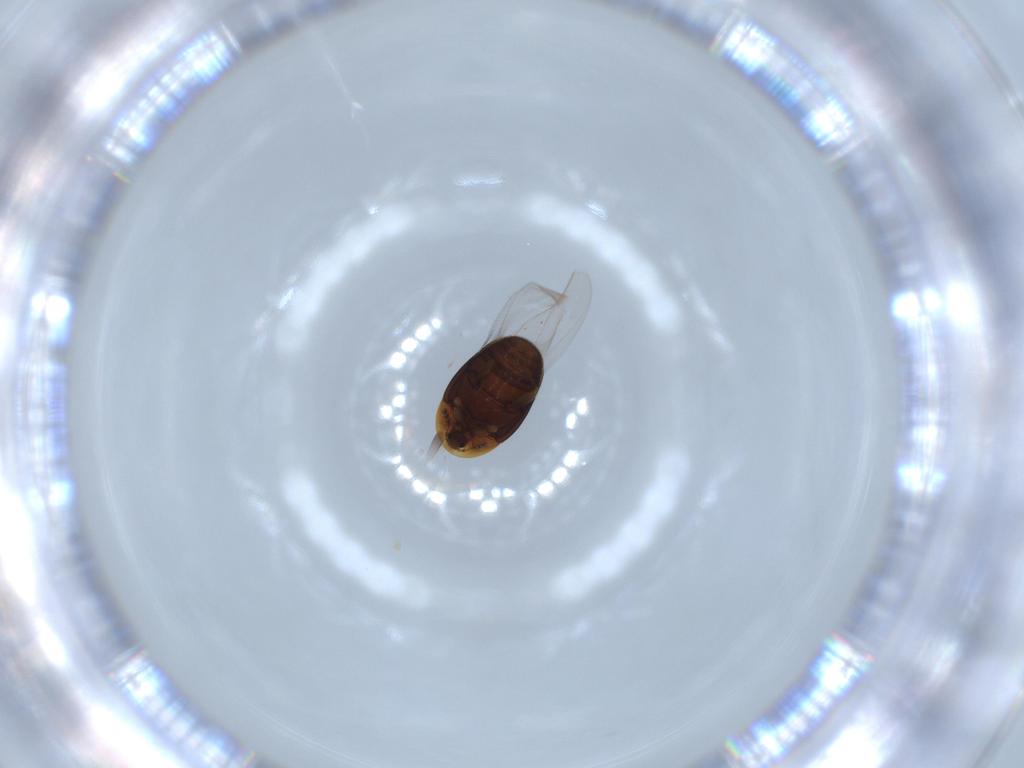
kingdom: Animalia
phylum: Arthropoda
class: Insecta
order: Coleoptera
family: Corylophidae
